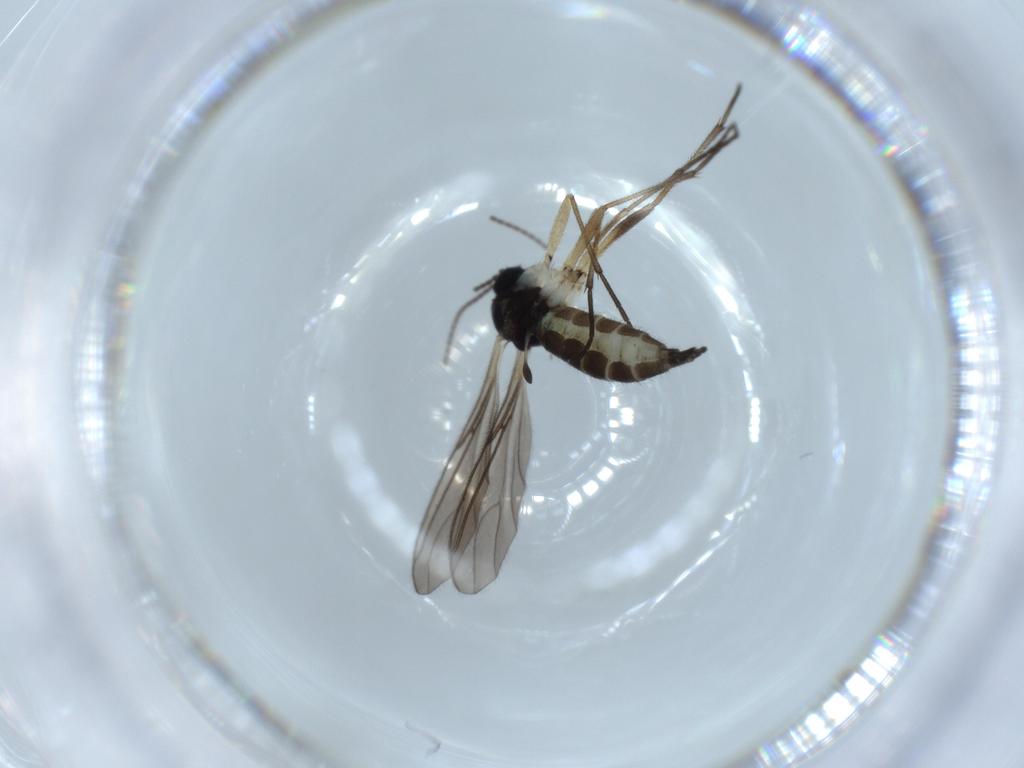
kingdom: Animalia
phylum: Arthropoda
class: Insecta
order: Diptera
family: Sciaridae
